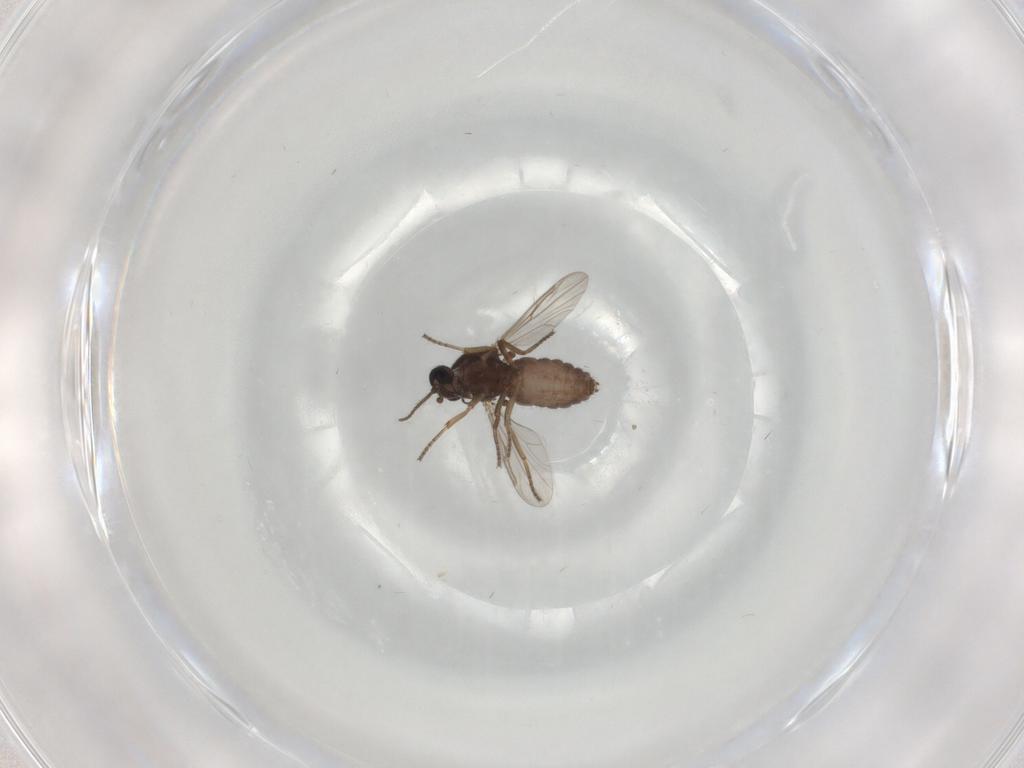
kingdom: Animalia
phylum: Arthropoda
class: Insecta
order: Diptera
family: Ceratopogonidae
